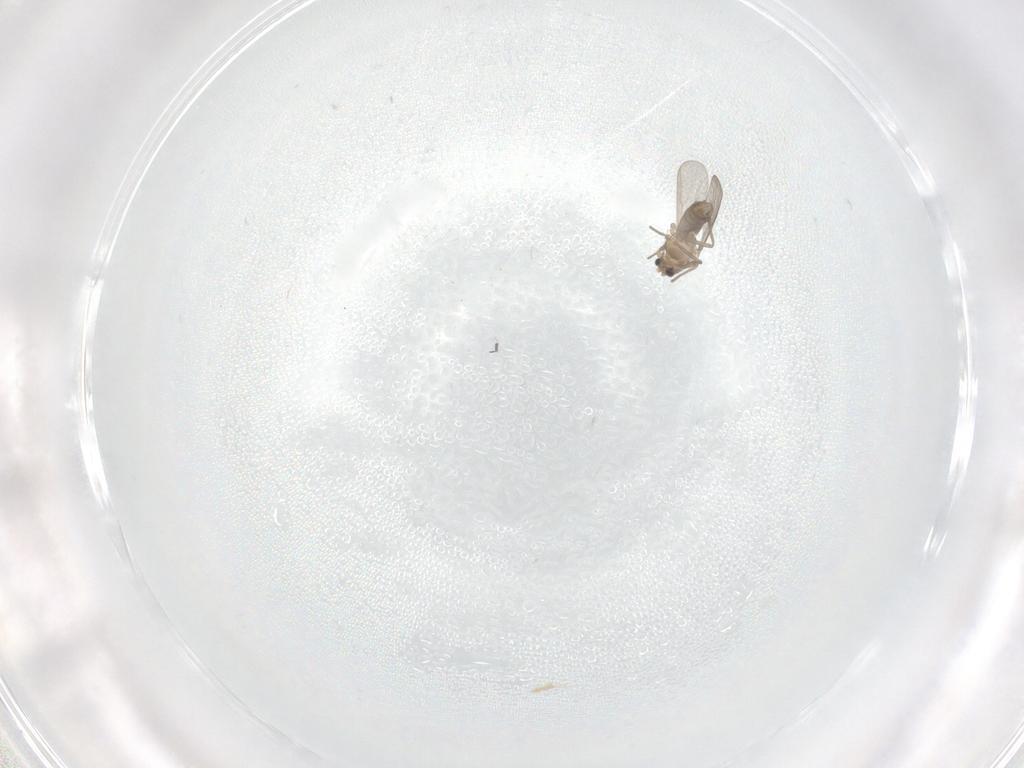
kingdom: Animalia
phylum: Arthropoda
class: Insecta
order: Diptera
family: Chironomidae
